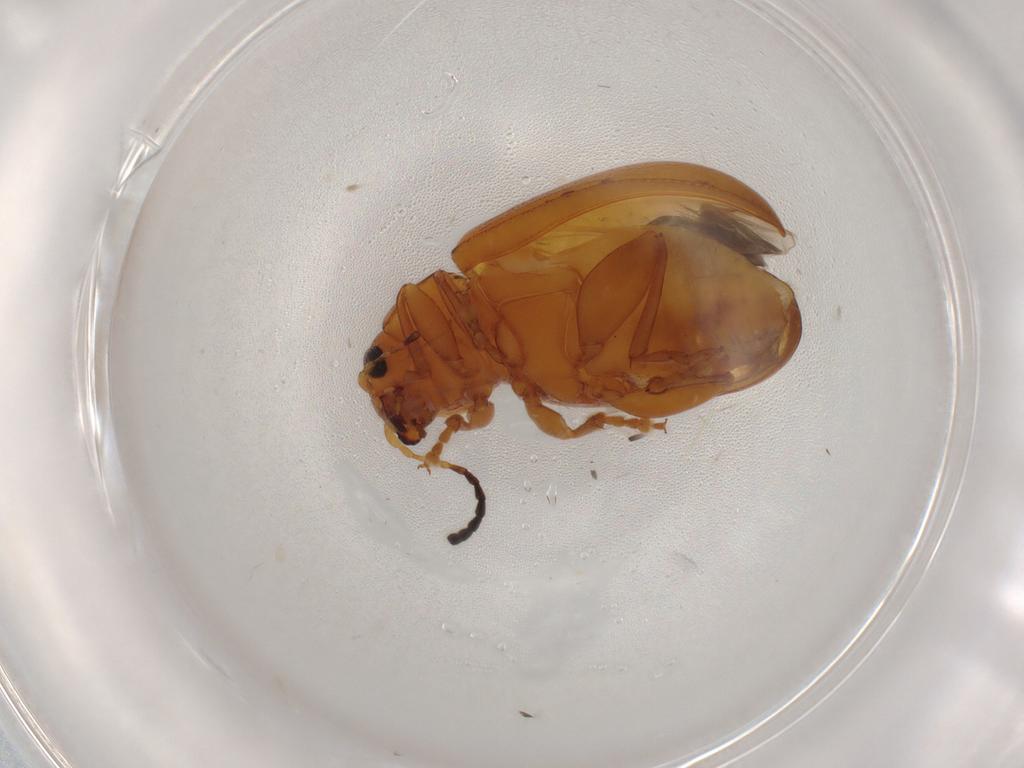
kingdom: Animalia
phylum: Arthropoda
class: Insecta
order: Coleoptera
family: Chrysomelidae
